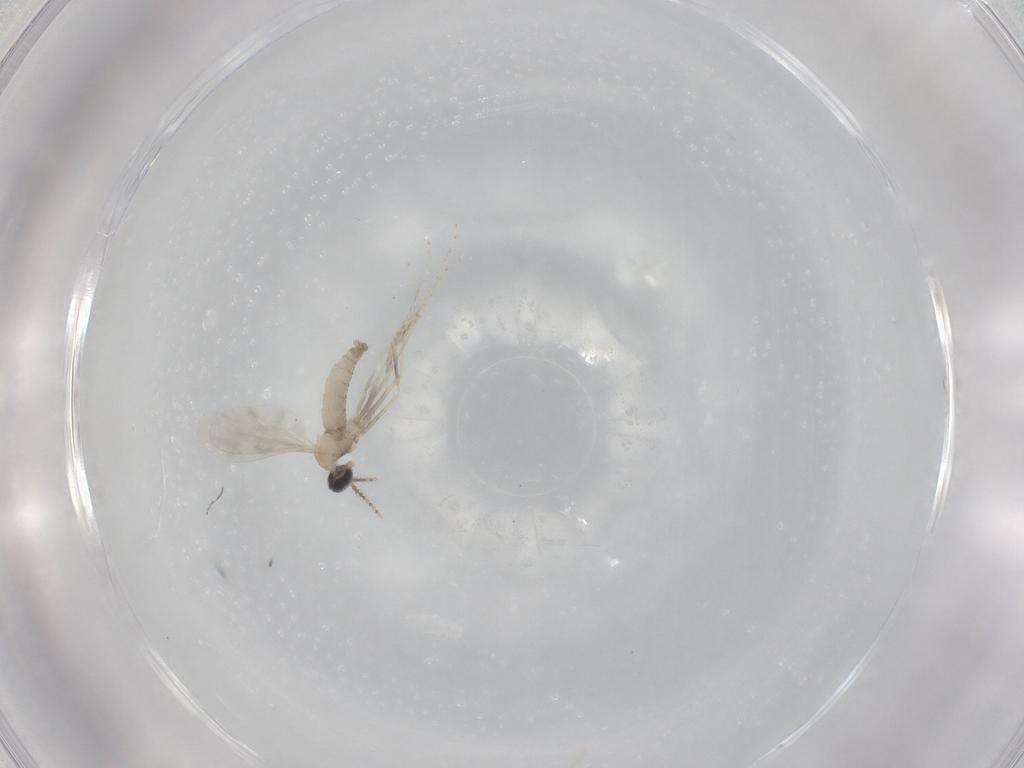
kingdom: Animalia
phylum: Arthropoda
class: Insecta
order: Diptera
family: Cecidomyiidae
